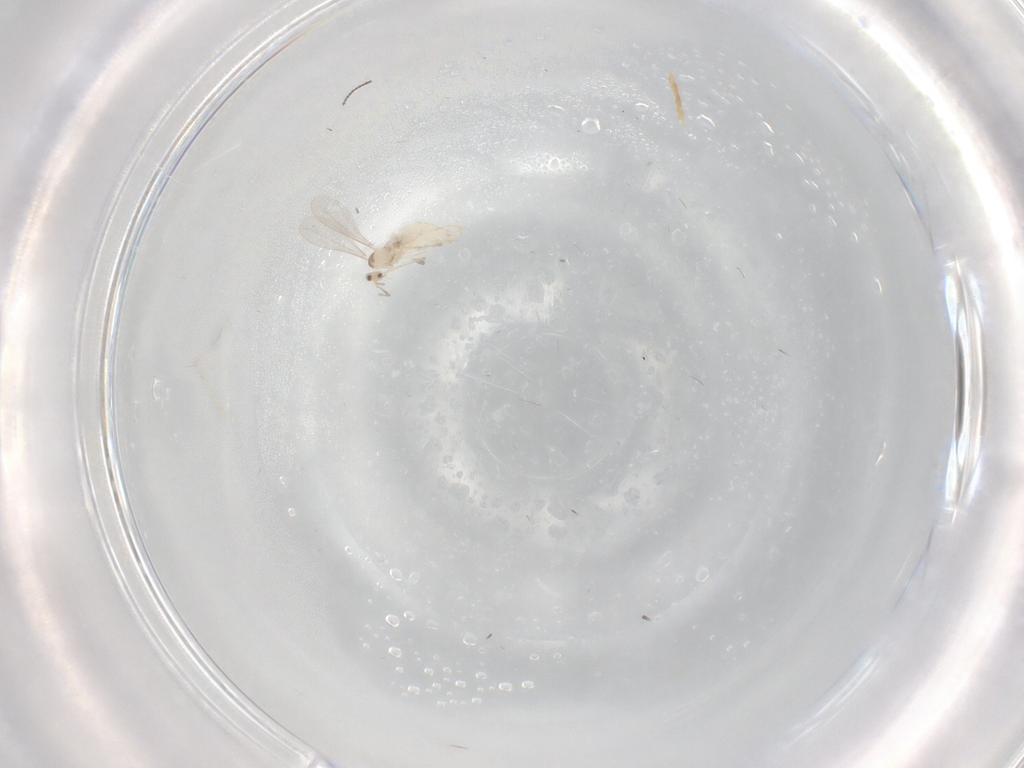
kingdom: Animalia
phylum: Arthropoda
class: Insecta
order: Diptera
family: Cecidomyiidae
